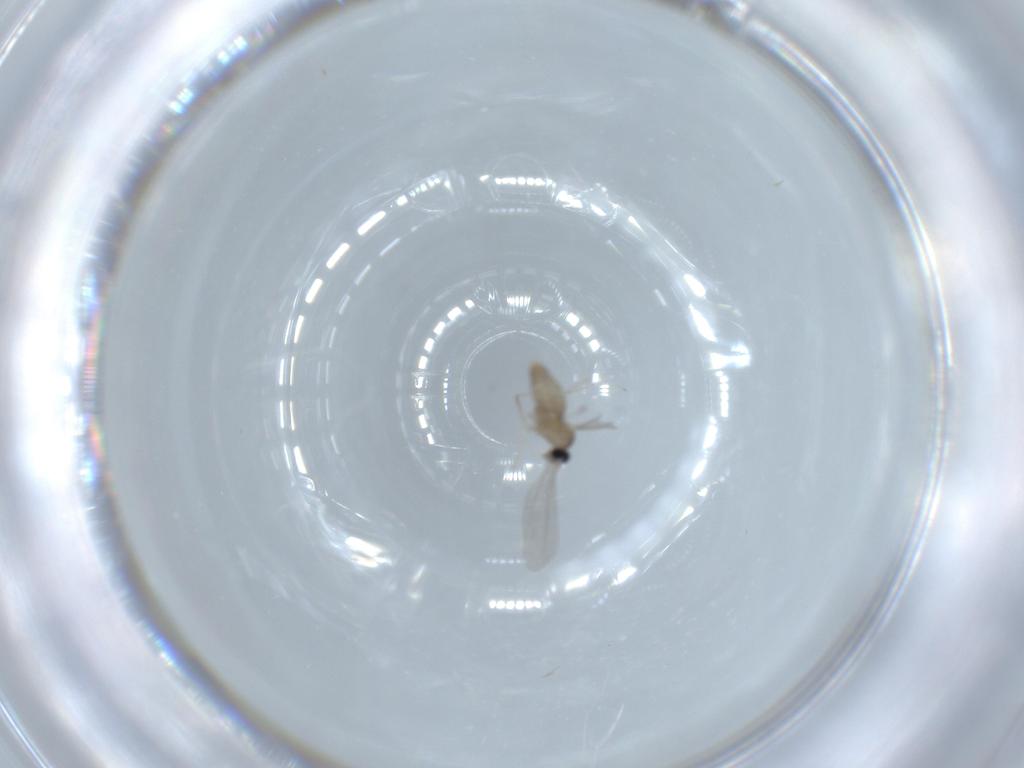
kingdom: Animalia
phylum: Arthropoda
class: Insecta
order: Diptera
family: Cecidomyiidae
